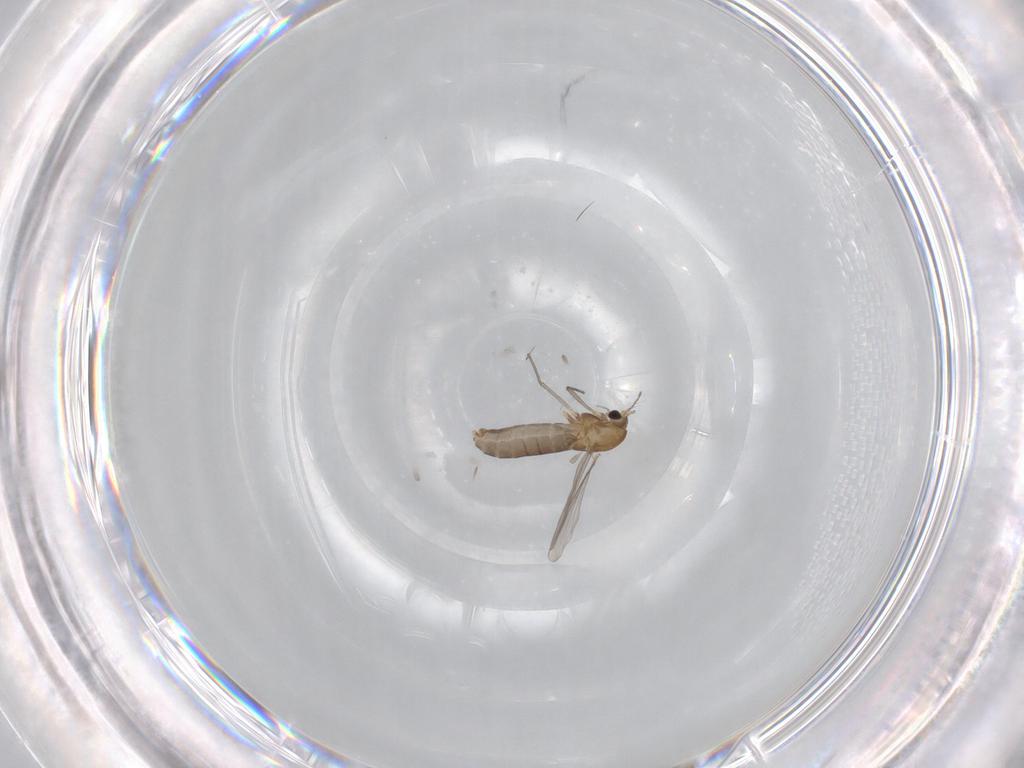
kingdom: Animalia
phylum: Arthropoda
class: Insecta
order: Diptera
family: Chironomidae
